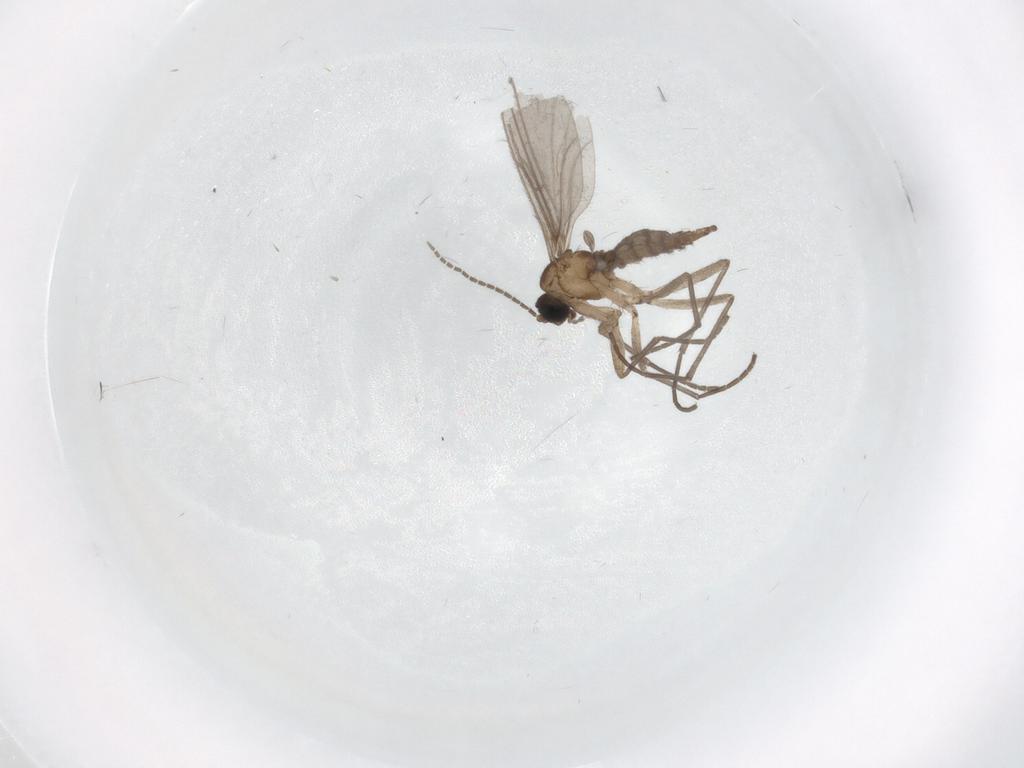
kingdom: Animalia
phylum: Arthropoda
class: Insecta
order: Diptera
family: Sciaridae
